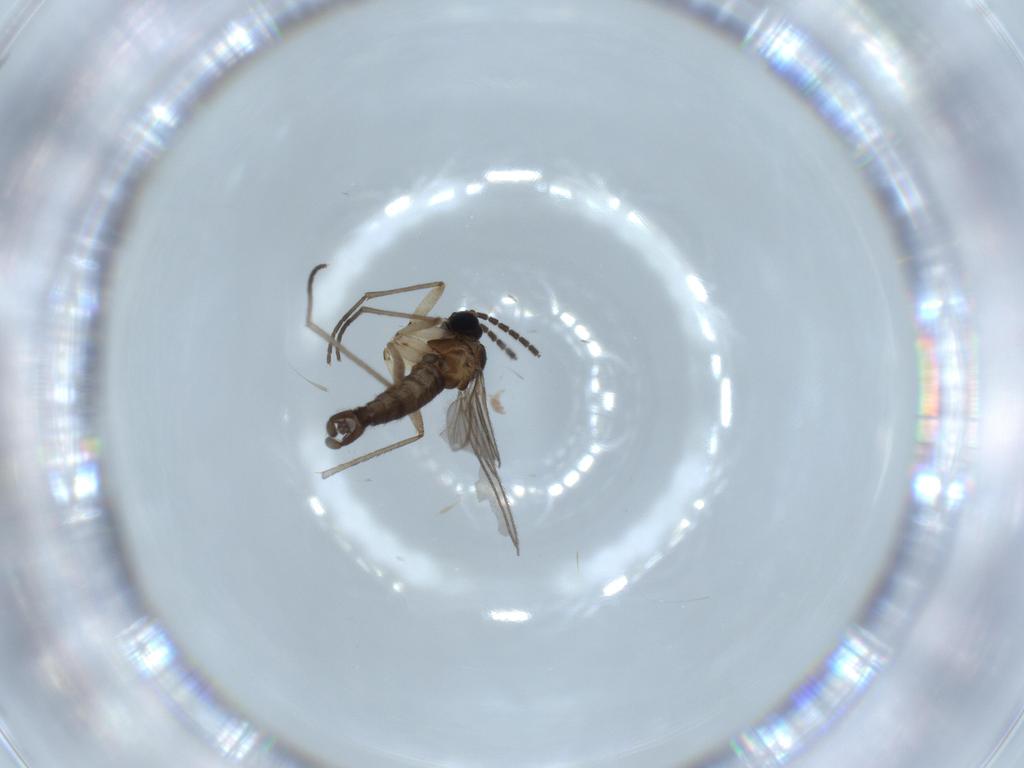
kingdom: Animalia
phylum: Arthropoda
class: Insecta
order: Diptera
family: Sciaridae
